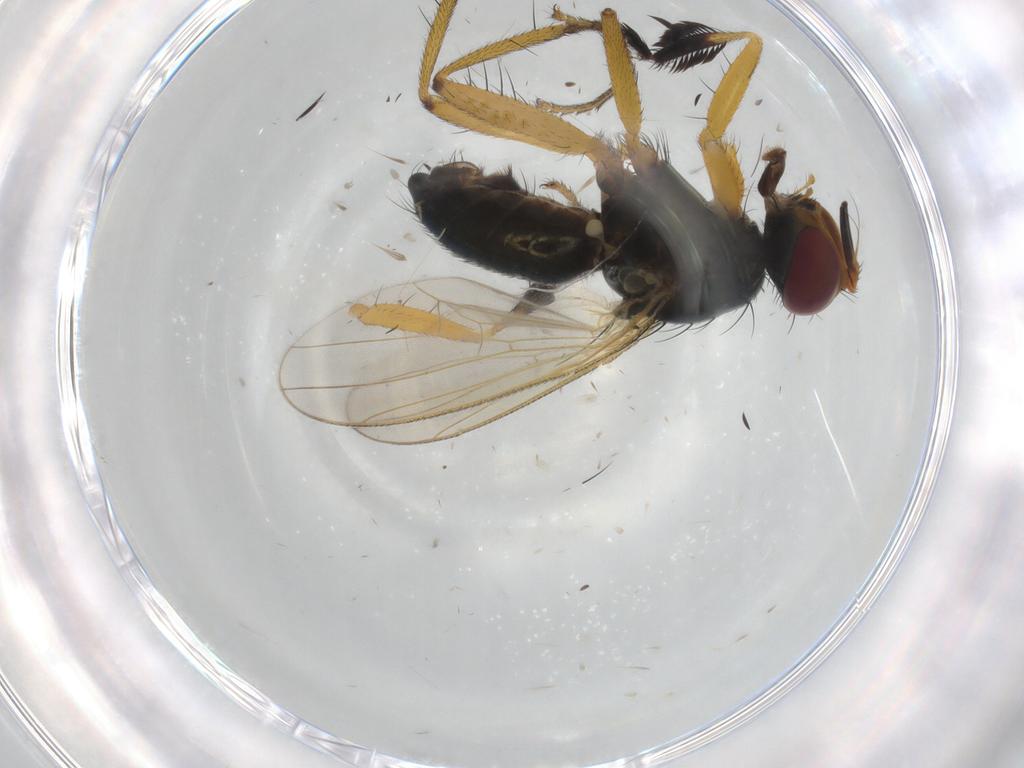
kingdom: Animalia
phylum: Arthropoda
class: Insecta
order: Diptera
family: Muscidae
